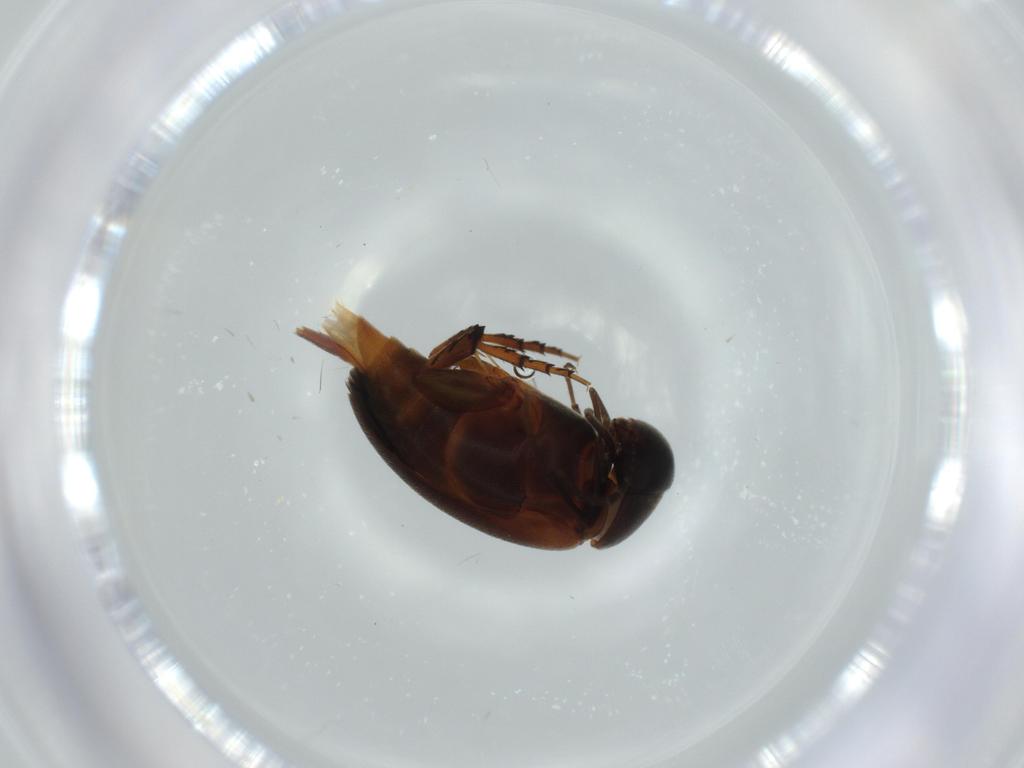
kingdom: Animalia
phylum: Arthropoda
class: Insecta
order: Coleoptera
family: Mordellidae
